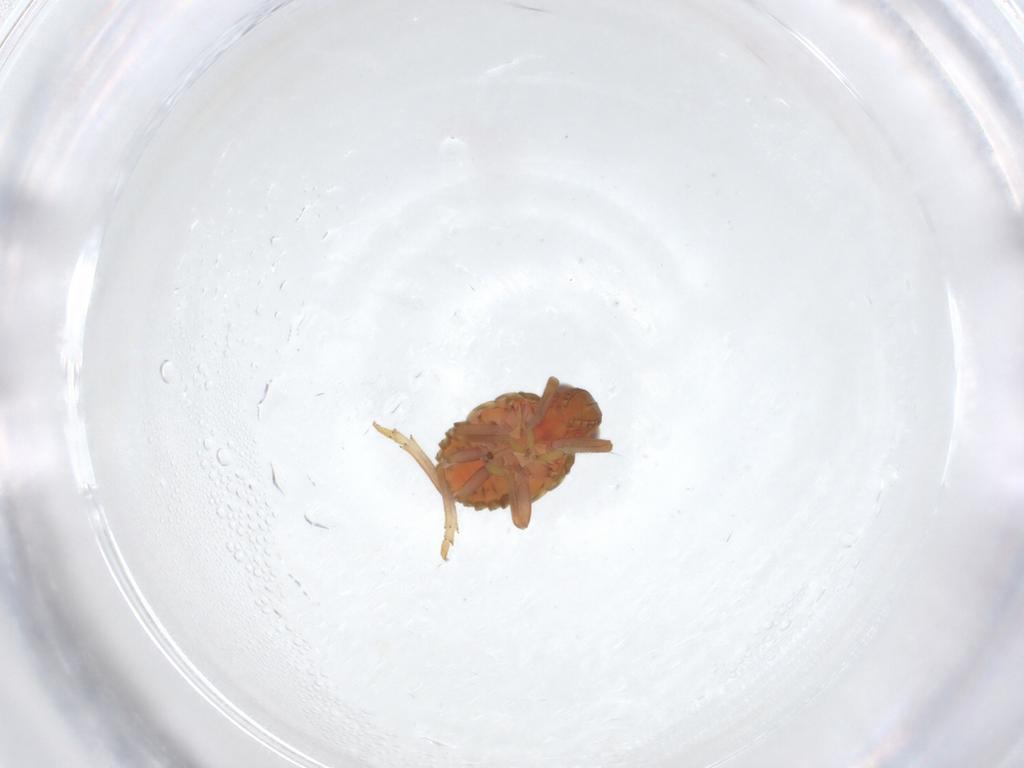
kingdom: Animalia
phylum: Arthropoda
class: Insecta
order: Hemiptera
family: Issidae
